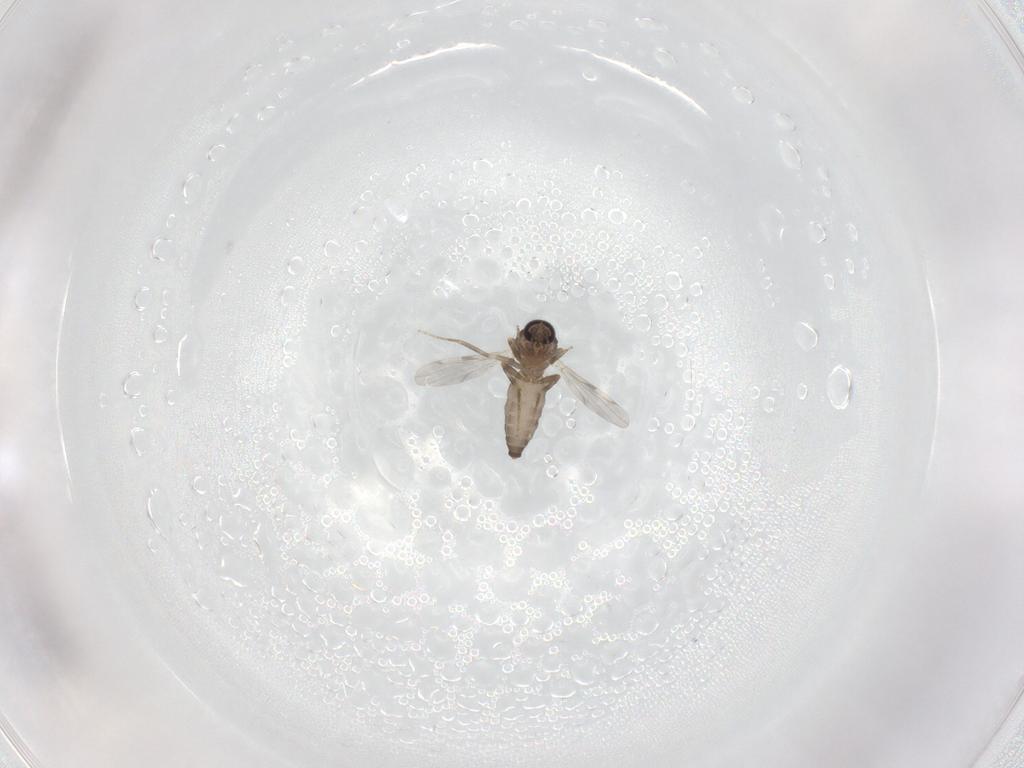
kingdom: Animalia
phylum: Arthropoda
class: Insecta
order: Diptera
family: Ceratopogonidae
